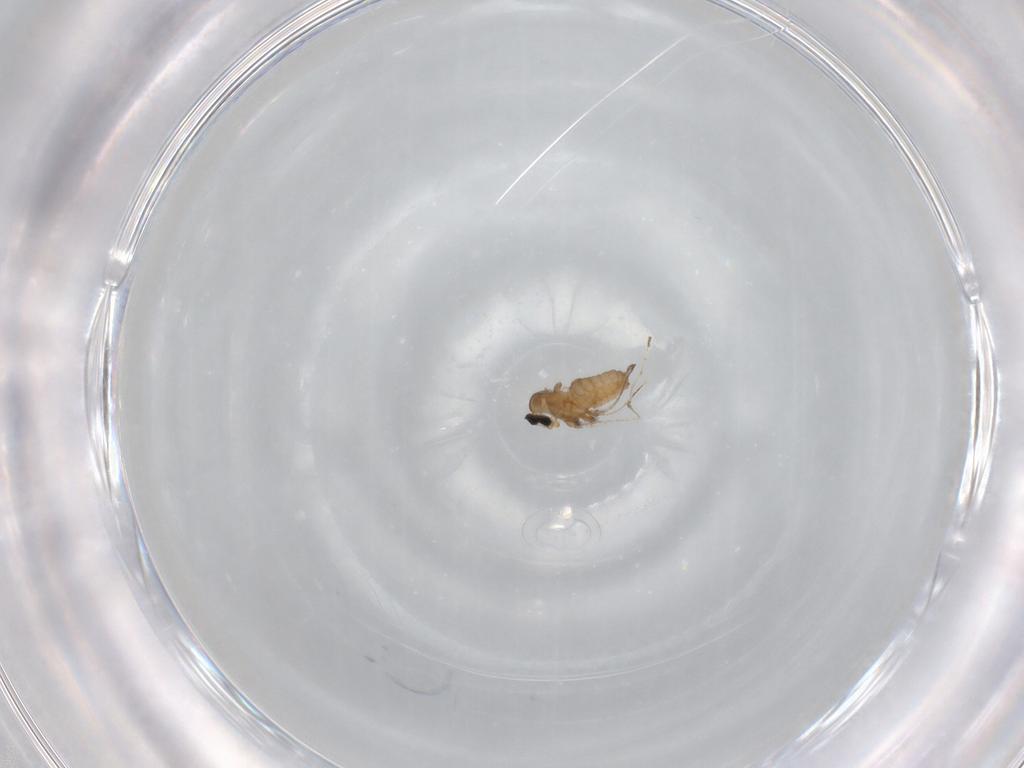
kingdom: Animalia
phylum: Arthropoda
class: Insecta
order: Diptera
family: Cecidomyiidae
